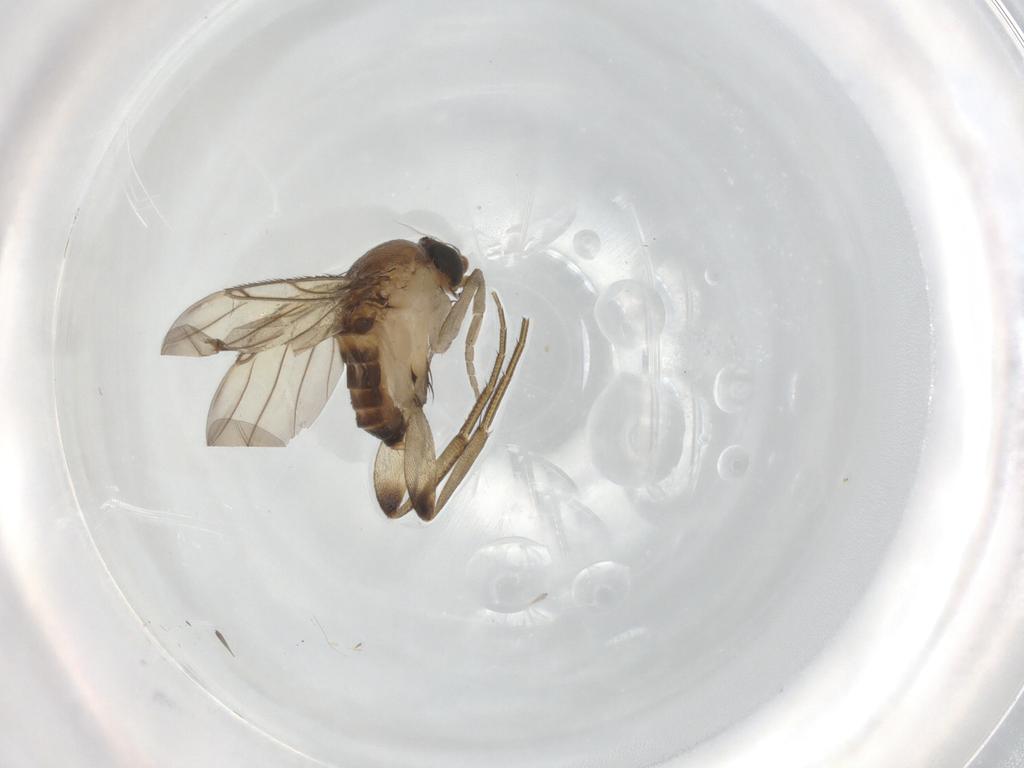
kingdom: Animalia
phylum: Arthropoda
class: Insecta
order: Diptera
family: Phoridae
